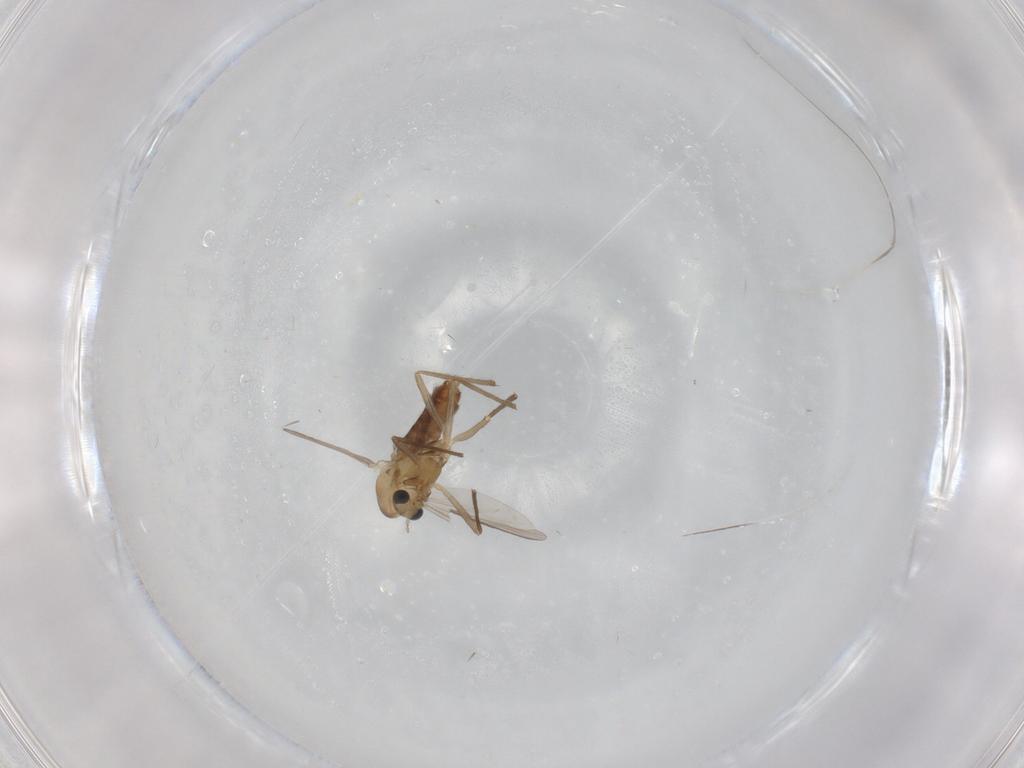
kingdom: Animalia
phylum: Arthropoda
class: Insecta
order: Diptera
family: Chironomidae
